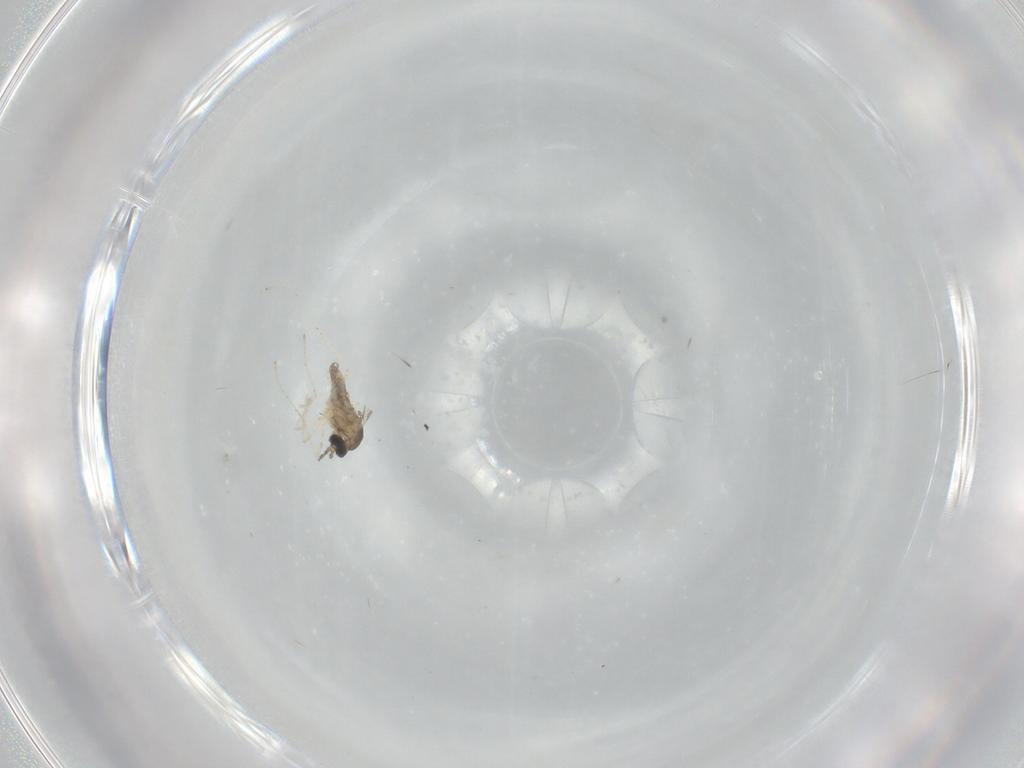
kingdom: Animalia
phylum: Arthropoda
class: Insecta
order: Diptera
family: Cecidomyiidae
